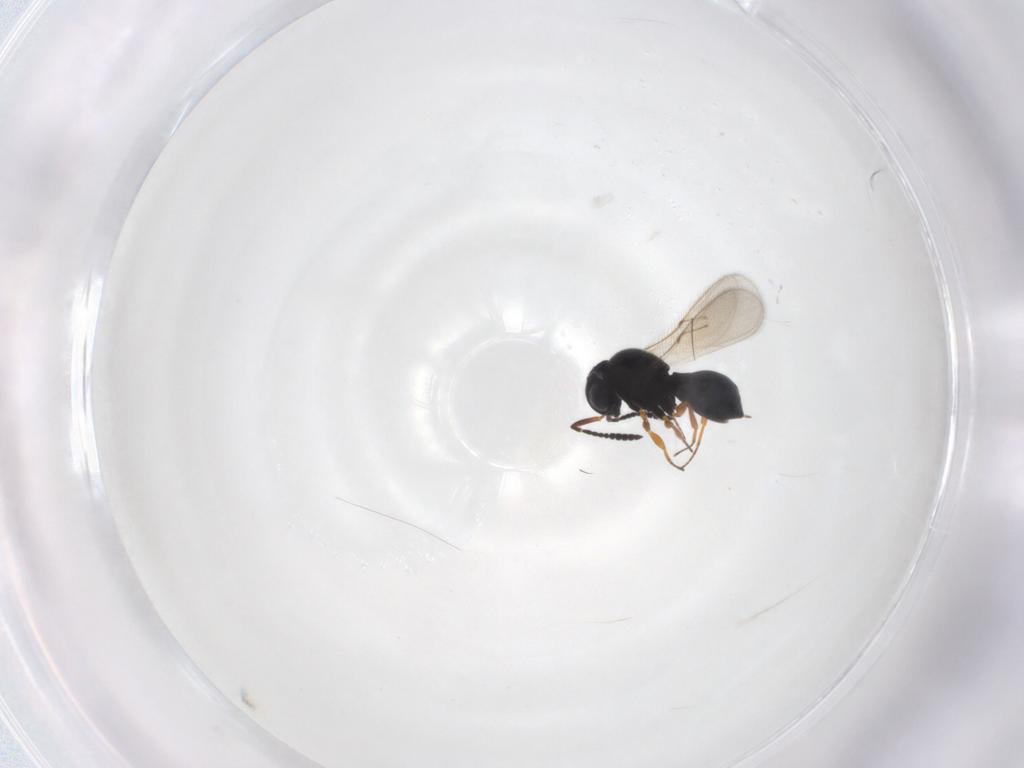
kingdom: Animalia
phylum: Arthropoda
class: Insecta
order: Hymenoptera
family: Scelionidae
